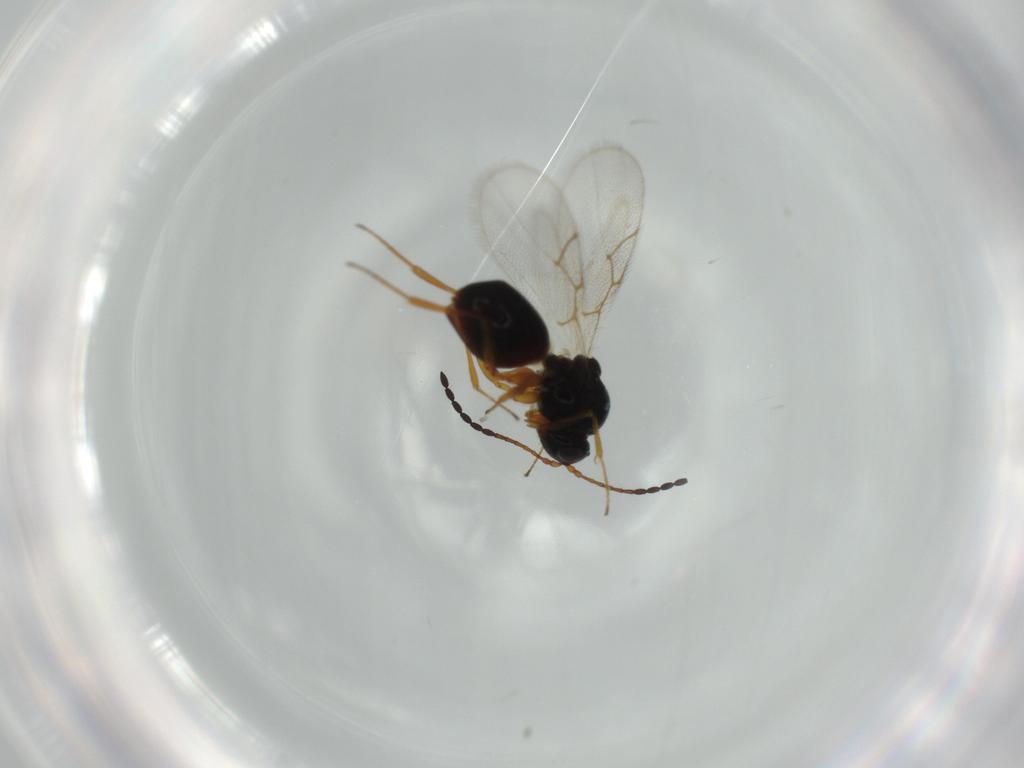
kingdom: Animalia
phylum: Arthropoda
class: Insecta
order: Hymenoptera
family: Figitidae
